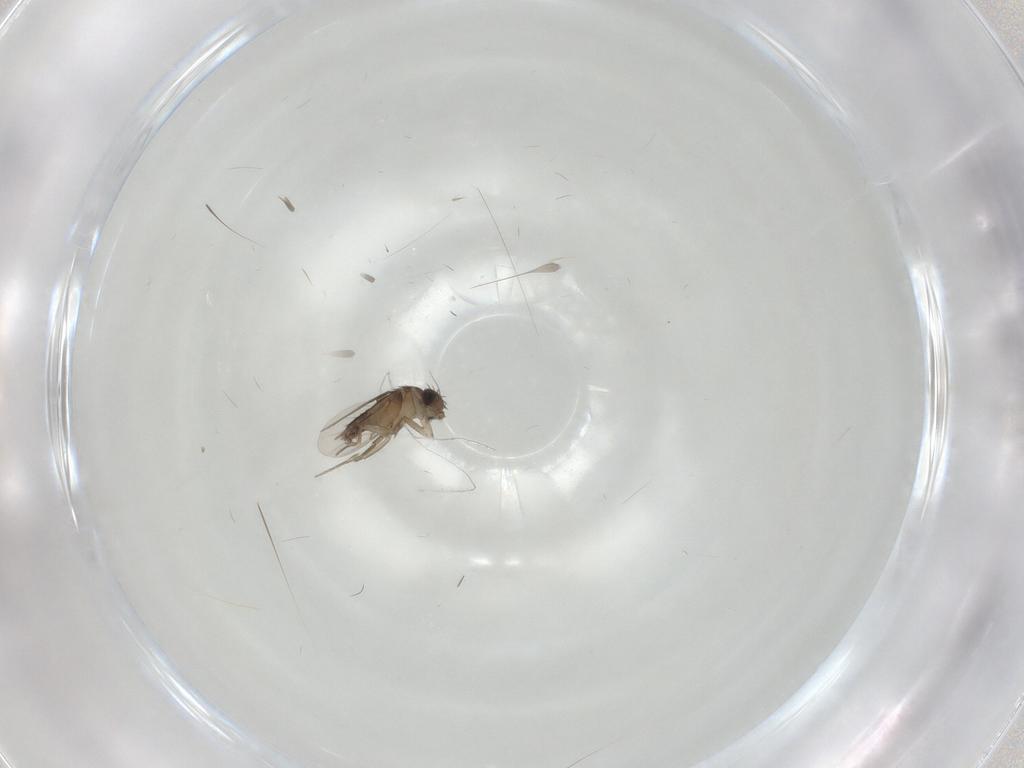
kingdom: Animalia
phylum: Arthropoda
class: Insecta
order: Diptera
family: Phoridae
